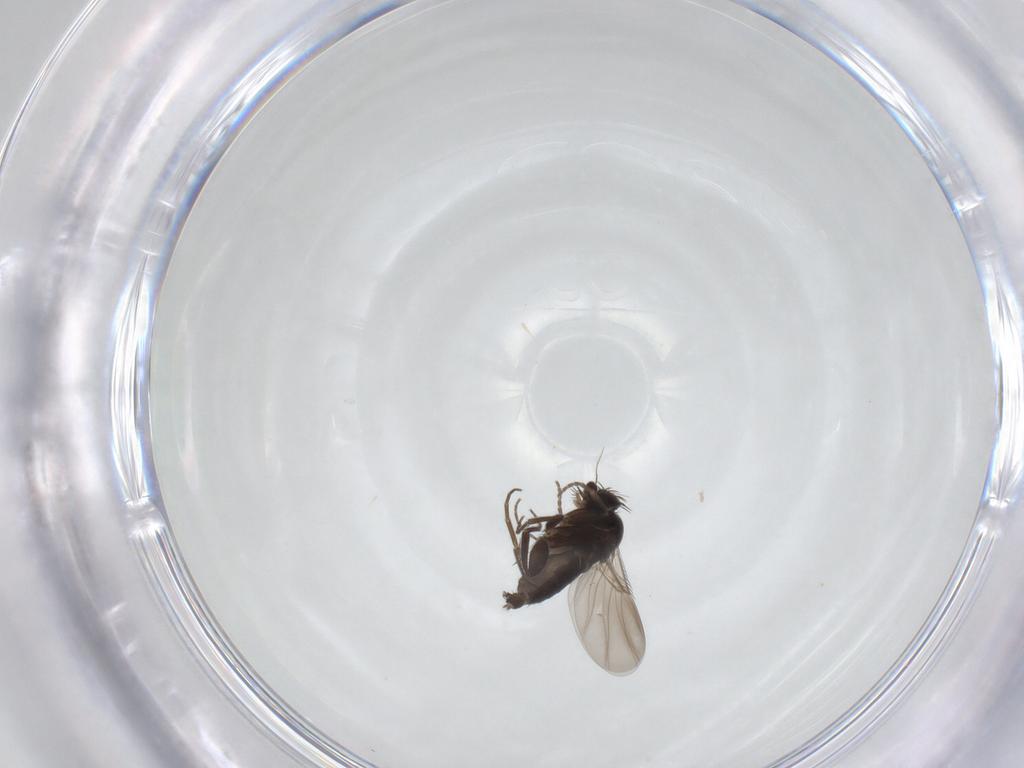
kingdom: Animalia
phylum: Arthropoda
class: Insecta
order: Diptera
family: Phoridae
